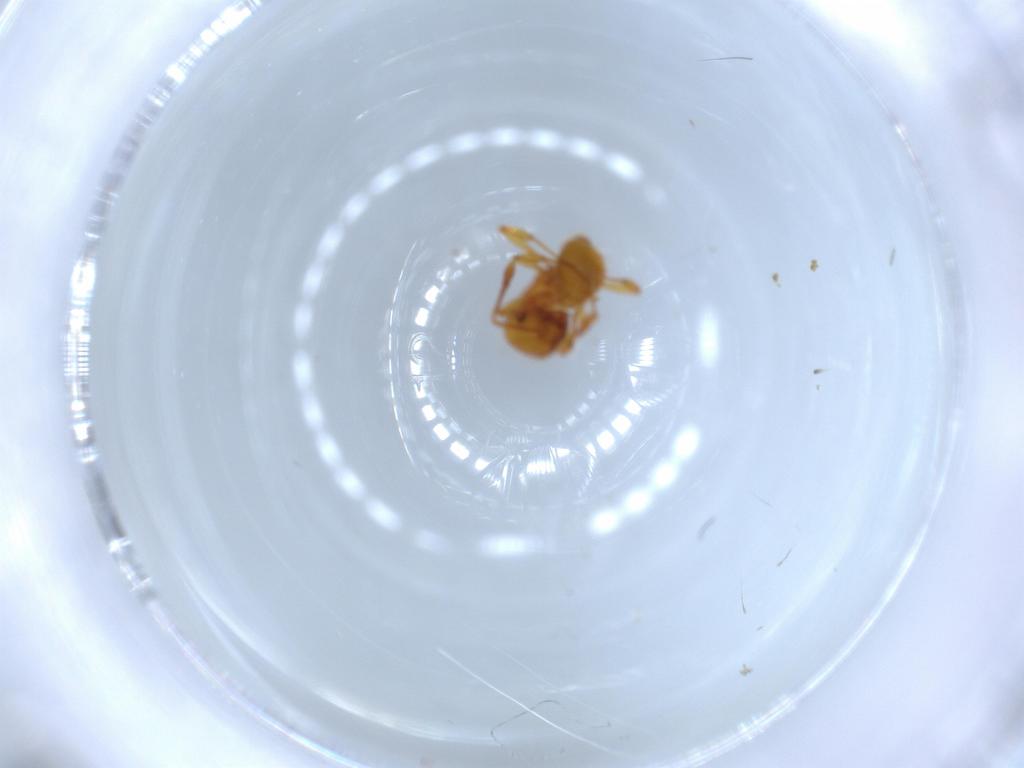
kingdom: Animalia
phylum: Arthropoda
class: Insecta
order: Hymenoptera
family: Formicidae
